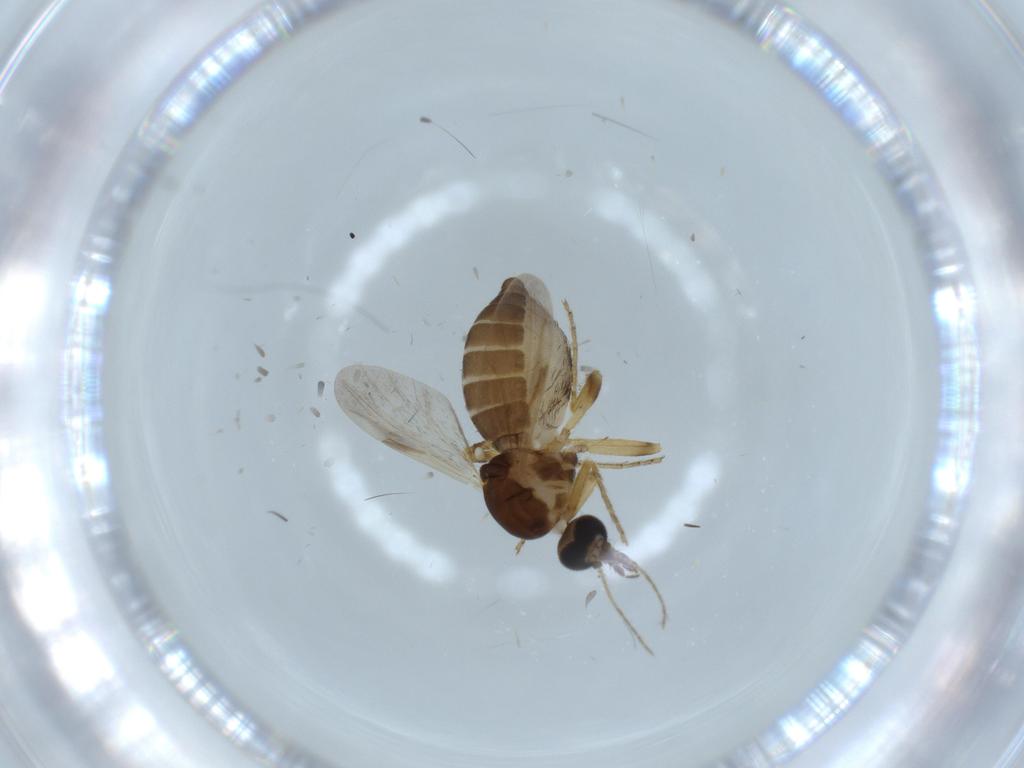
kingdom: Animalia
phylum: Arthropoda
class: Insecta
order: Diptera
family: Ceratopogonidae
